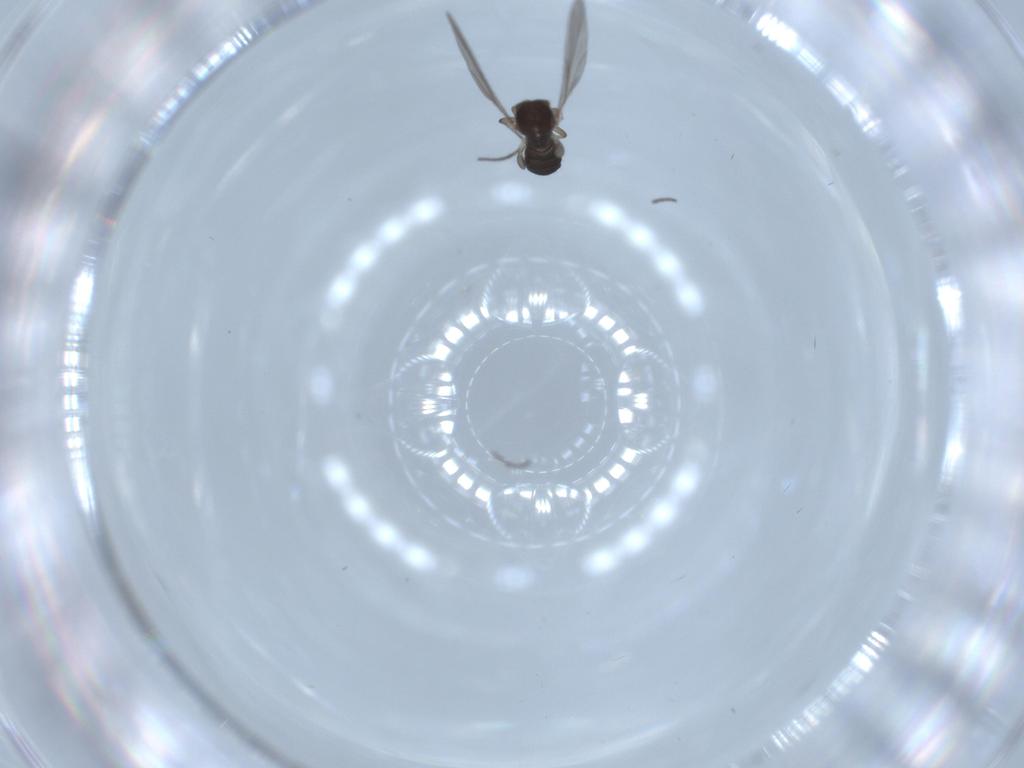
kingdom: Animalia
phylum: Arthropoda
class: Insecta
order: Diptera
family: Sciaridae
